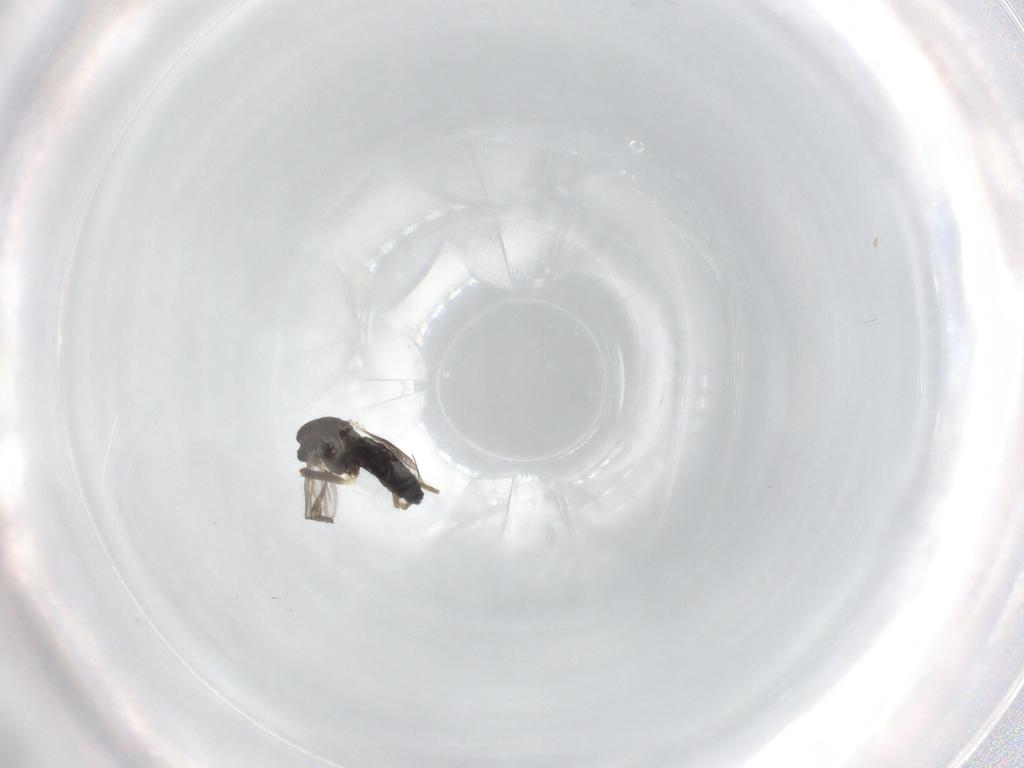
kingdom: Animalia
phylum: Arthropoda
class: Insecta
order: Diptera
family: Chironomidae
